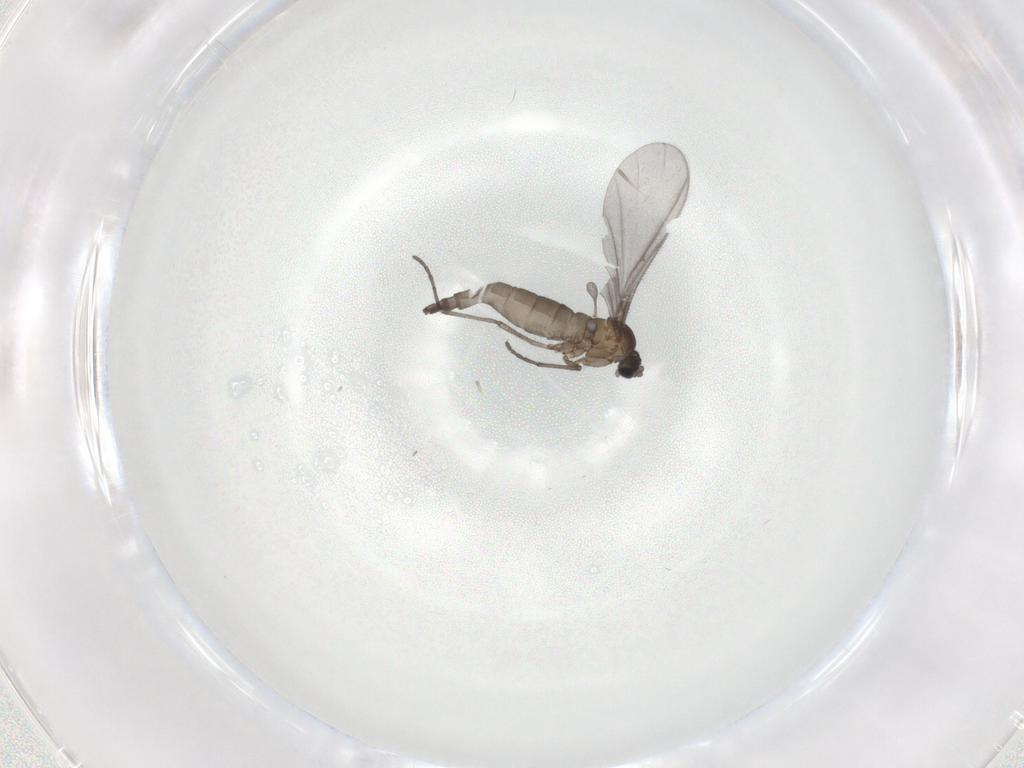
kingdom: Animalia
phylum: Arthropoda
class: Insecta
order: Diptera
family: Sciaridae
